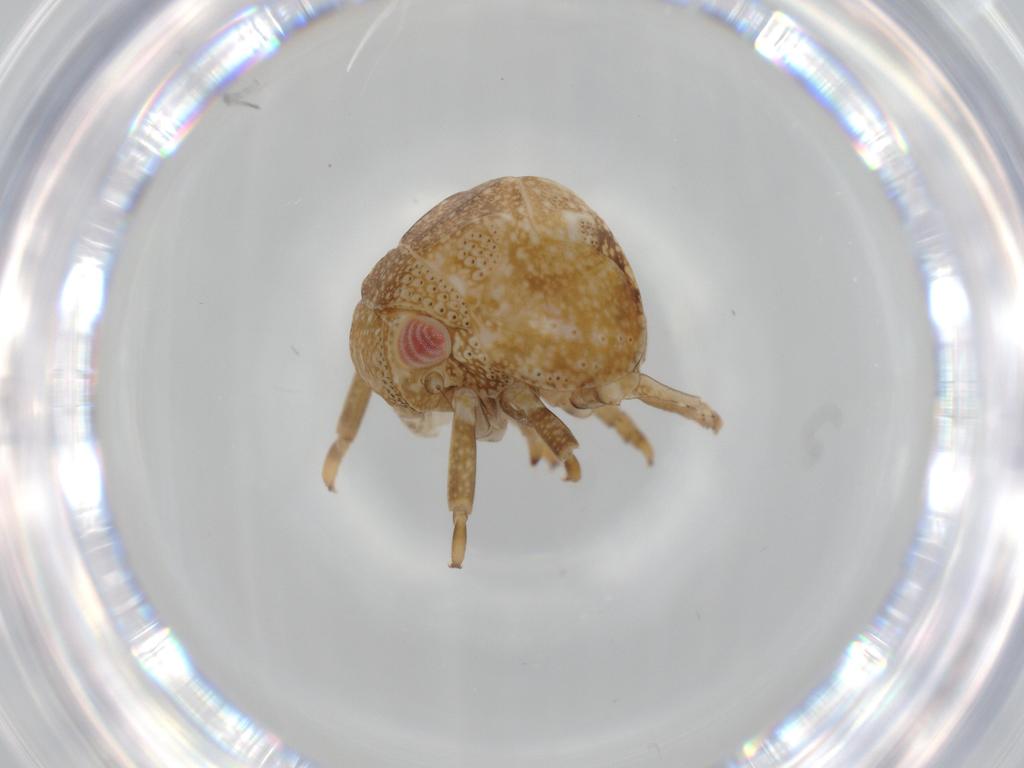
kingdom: Animalia
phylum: Arthropoda
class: Insecta
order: Hemiptera
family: Acanaloniidae
